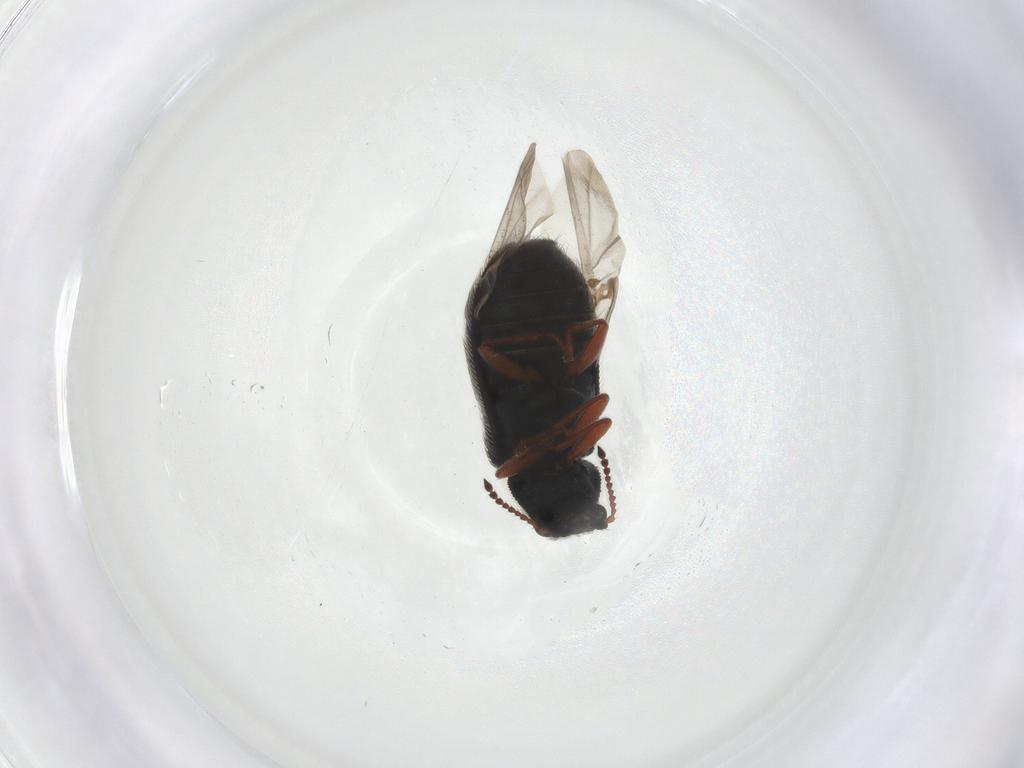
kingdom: Animalia
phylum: Arthropoda
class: Insecta
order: Coleoptera
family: Melyridae
